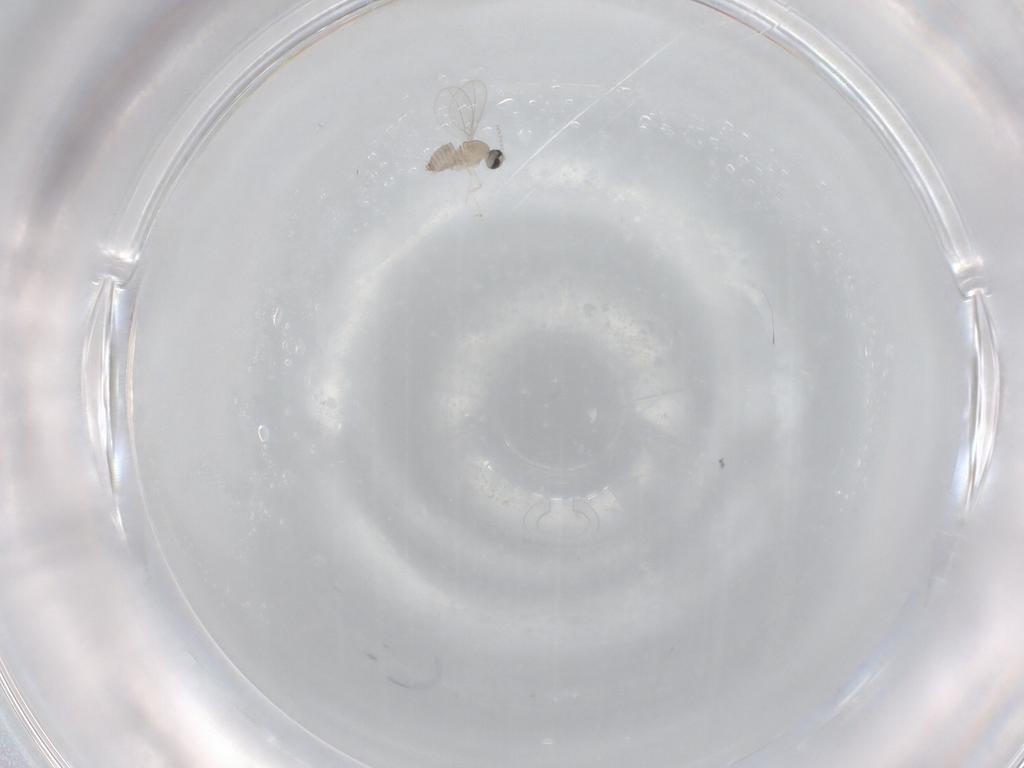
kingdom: Animalia
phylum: Arthropoda
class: Insecta
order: Diptera
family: Cecidomyiidae
